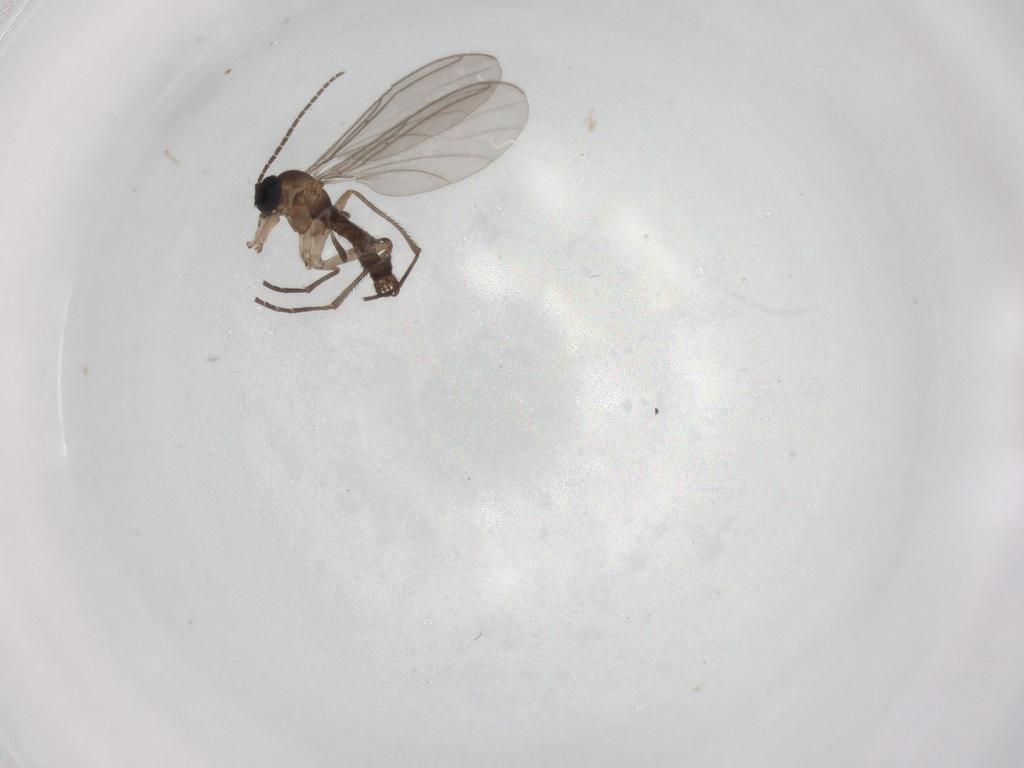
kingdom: Animalia
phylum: Arthropoda
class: Insecta
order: Diptera
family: Sciaridae
